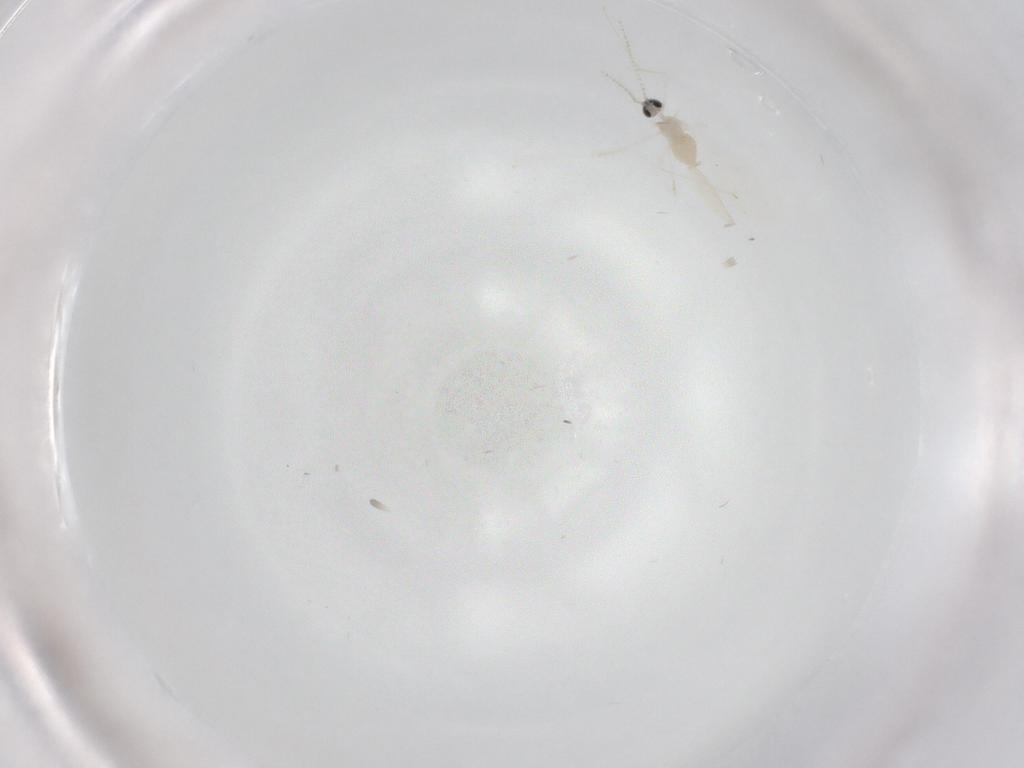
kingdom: Animalia
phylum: Arthropoda
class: Insecta
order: Diptera
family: Cecidomyiidae
